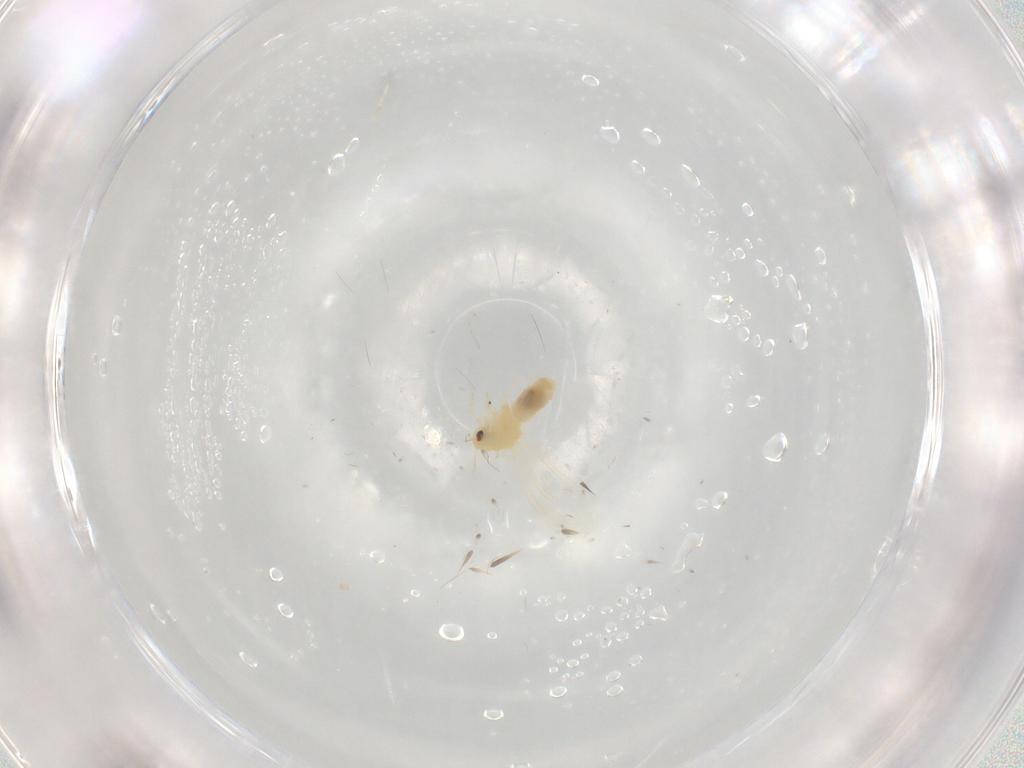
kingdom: Animalia
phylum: Arthropoda
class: Insecta
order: Hemiptera
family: Aleyrodidae
